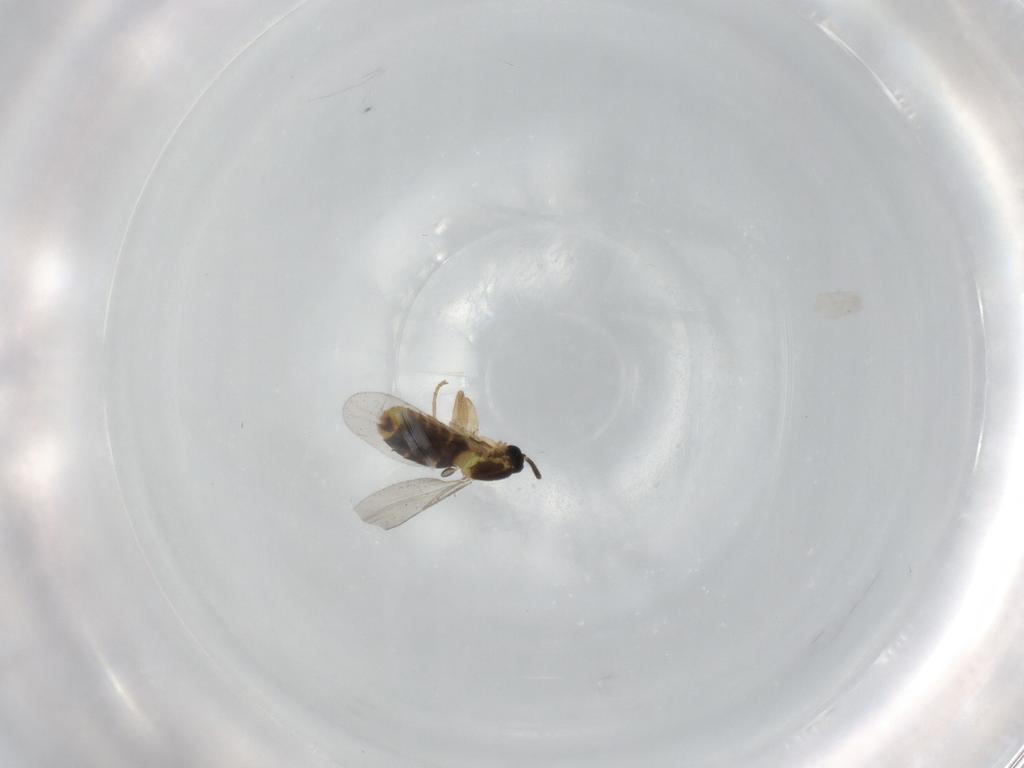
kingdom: Animalia
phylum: Arthropoda
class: Insecta
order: Diptera
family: Scatopsidae
